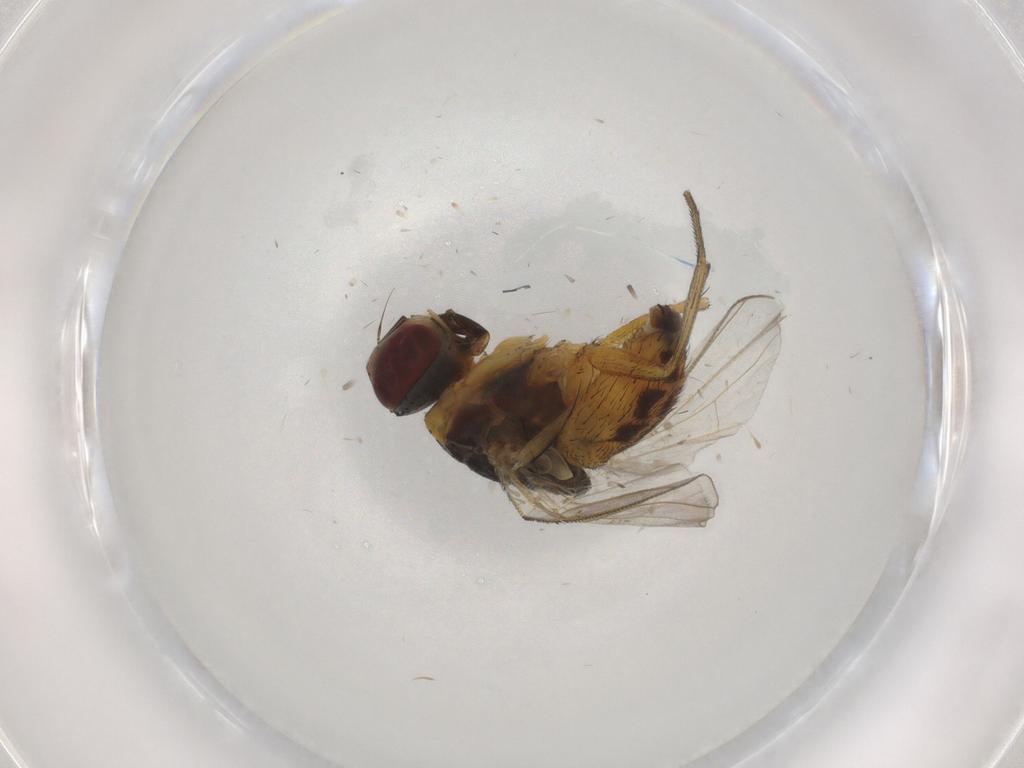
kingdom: Animalia
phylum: Arthropoda
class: Insecta
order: Diptera
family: Muscidae
